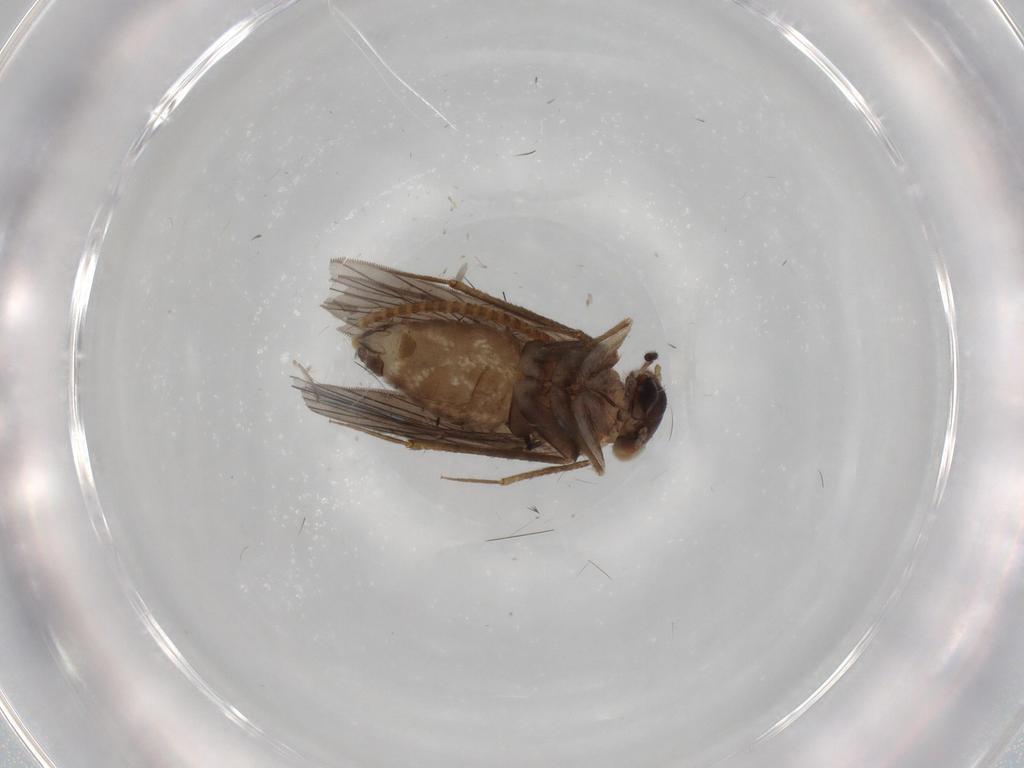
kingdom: Animalia
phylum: Arthropoda
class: Insecta
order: Psocodea
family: Lepidopsocidae
